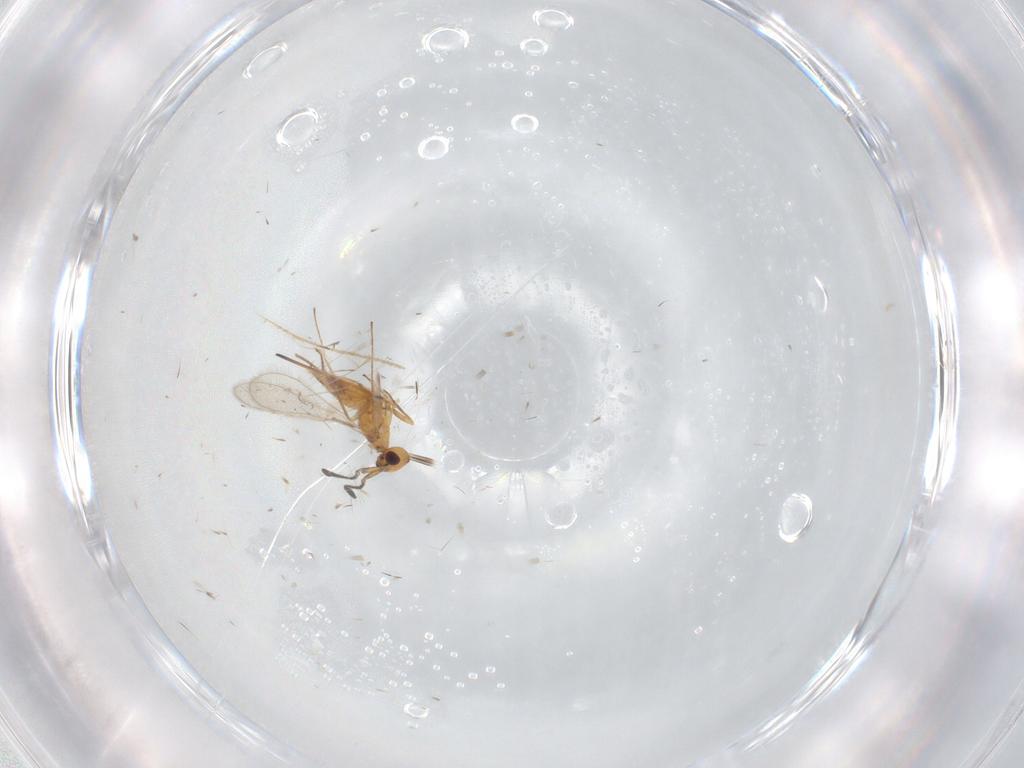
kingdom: Animalia
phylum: Arthropoda
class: Insecta
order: Hymenoptera
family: Mymaridae
